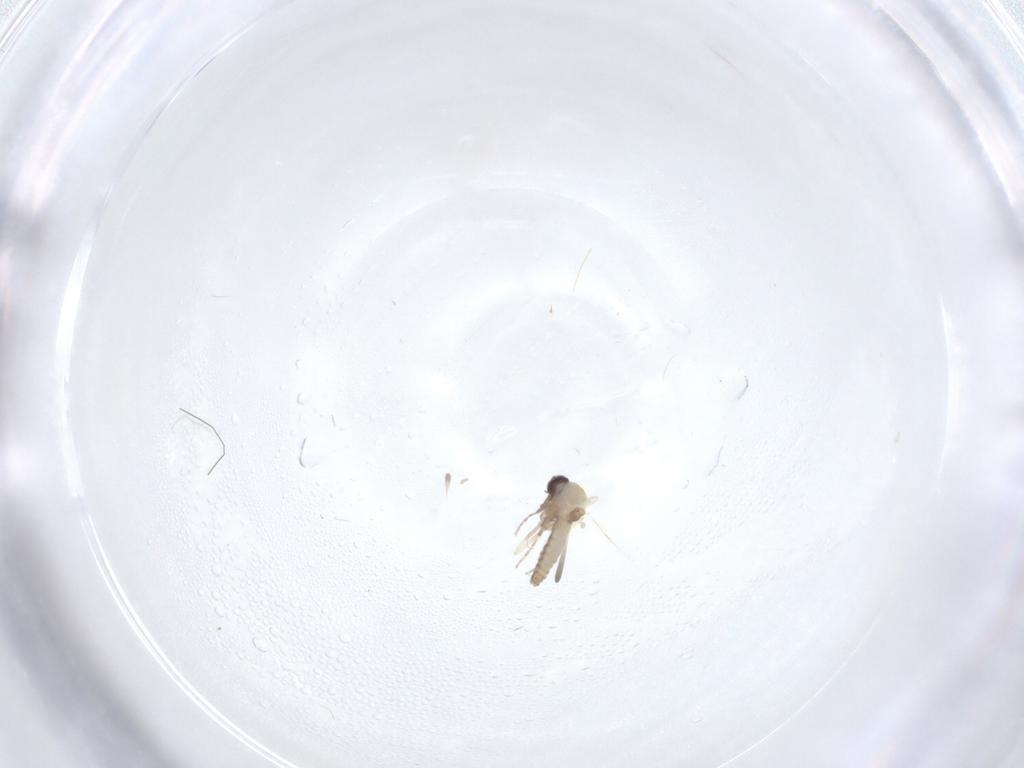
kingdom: Animalia
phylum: Arthropoda
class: Insecta
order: Diptera
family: Ceratopogonidae
